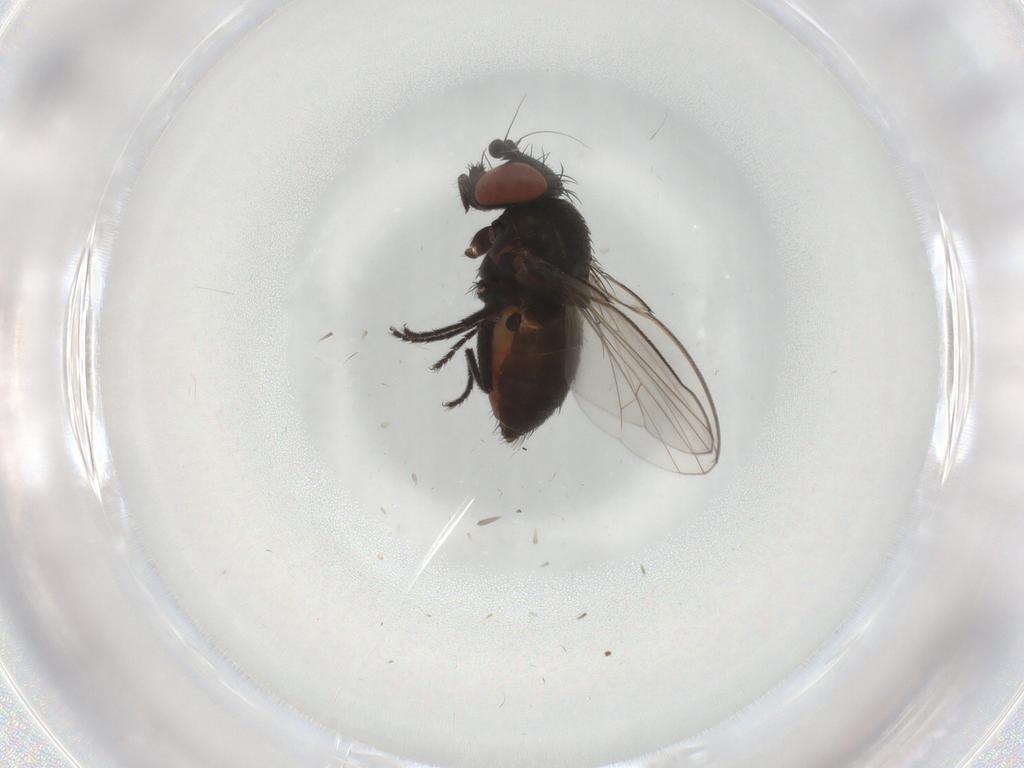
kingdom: Animalia
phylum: Arthropoda
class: Insecta
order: Diptera
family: Milichiidae
